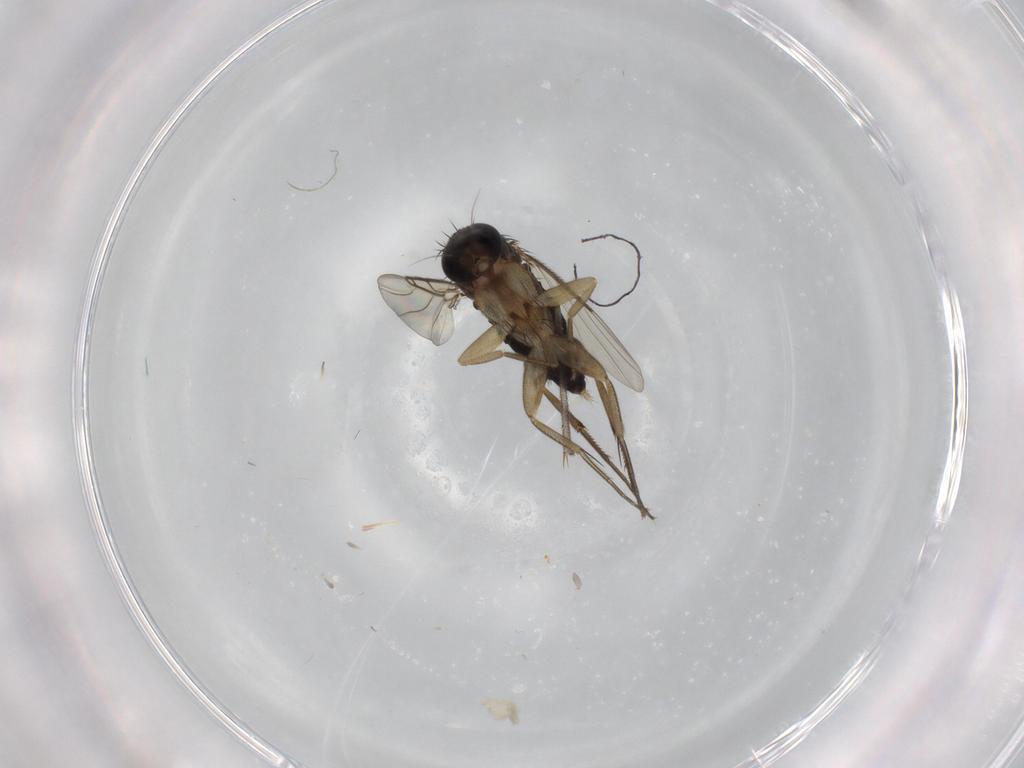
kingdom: Animalia
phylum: Arthropoda
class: Insecta
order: Diptera
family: Phoridae
